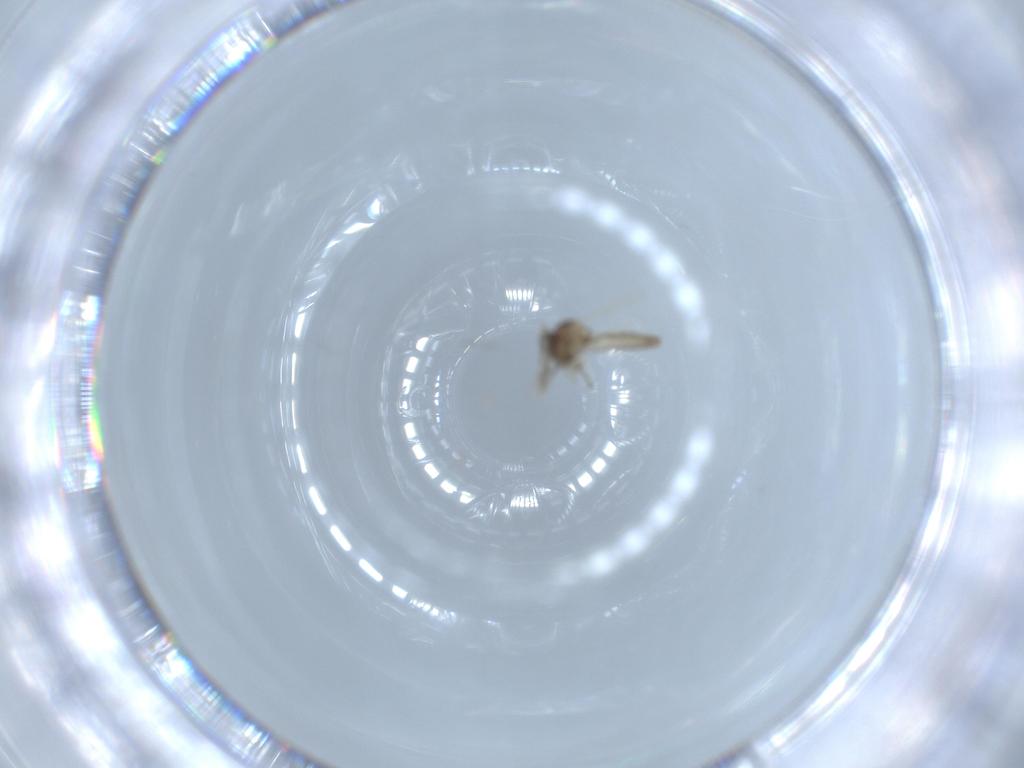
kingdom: Animalia
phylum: Arthropoda
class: Insecta
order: Diptera
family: Ceratopogonidae
